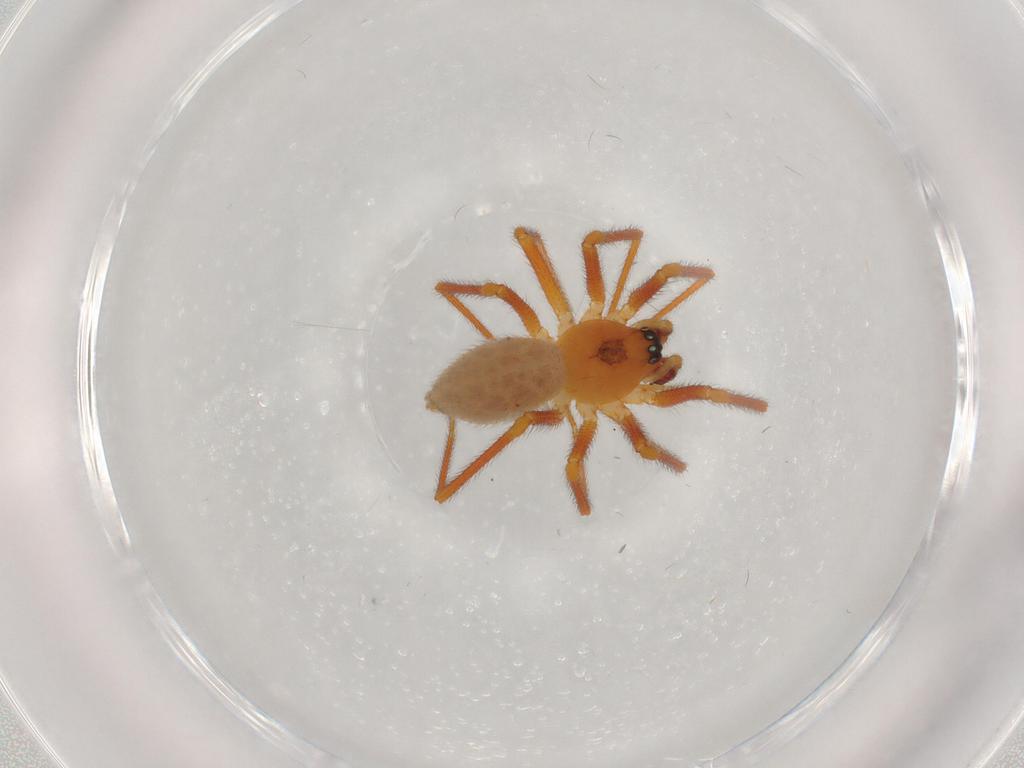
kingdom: Animalia
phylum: Arthropoda
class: Arachnida
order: Araneae
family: Linyphiidae
